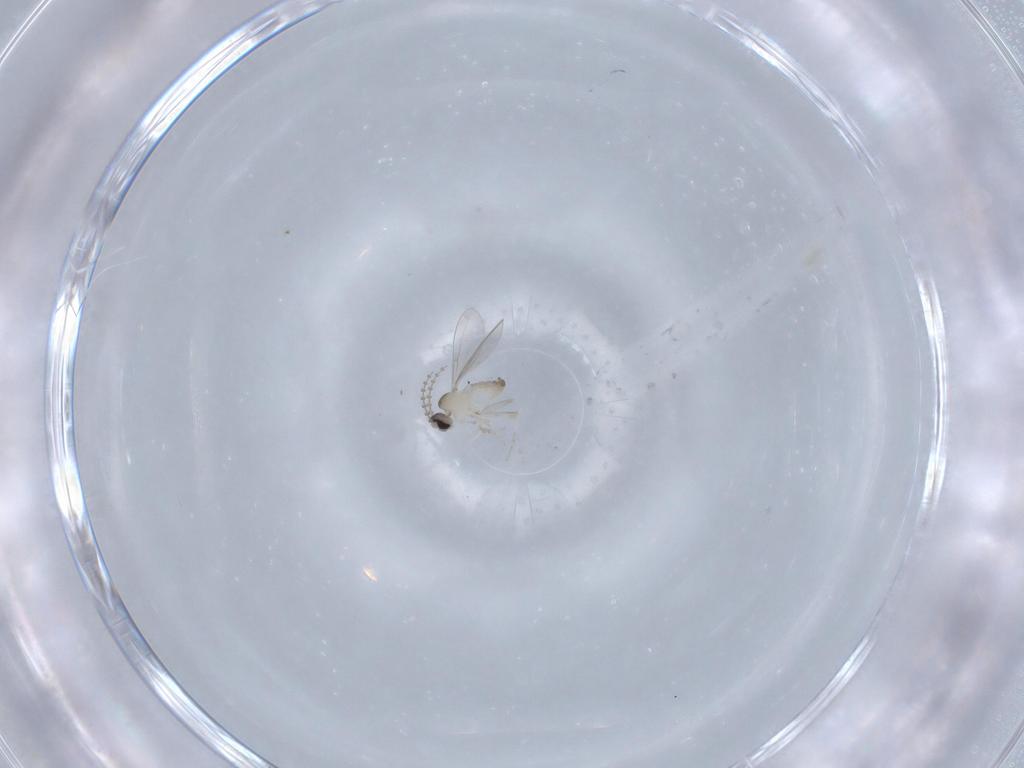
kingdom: Animalia
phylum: Arthropoda
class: Insecta
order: Diptera
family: Cecidomyiidae
